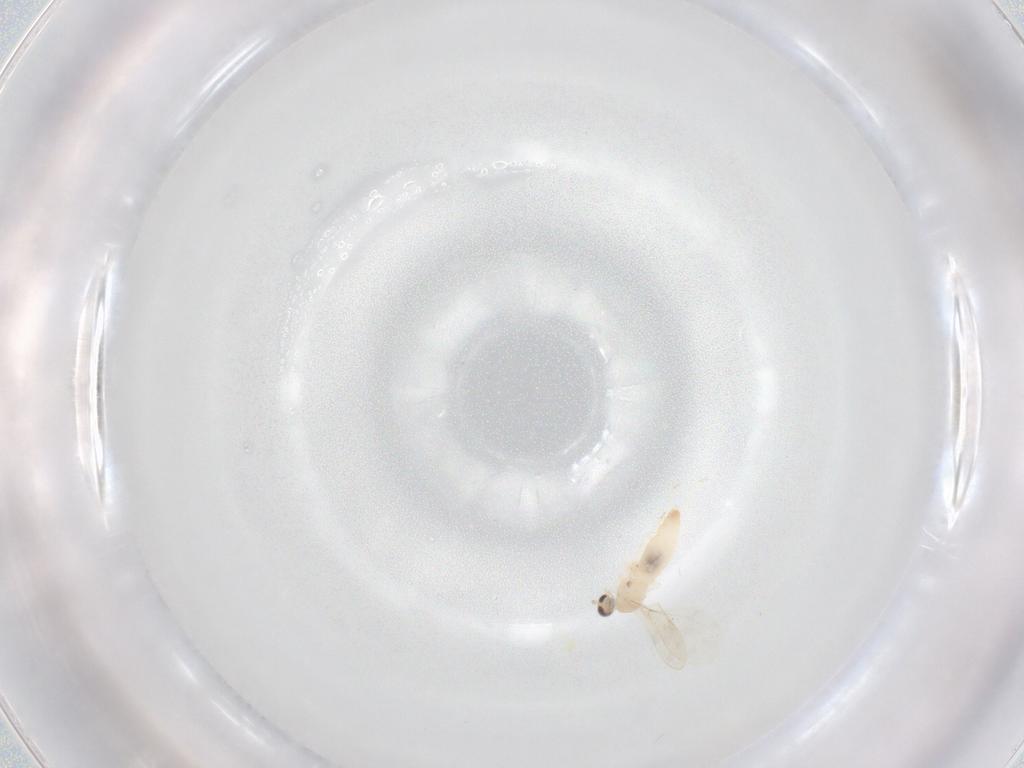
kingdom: Animalia
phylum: Arthropoda
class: Insecta
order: Diptera
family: Cecidomyiidae
